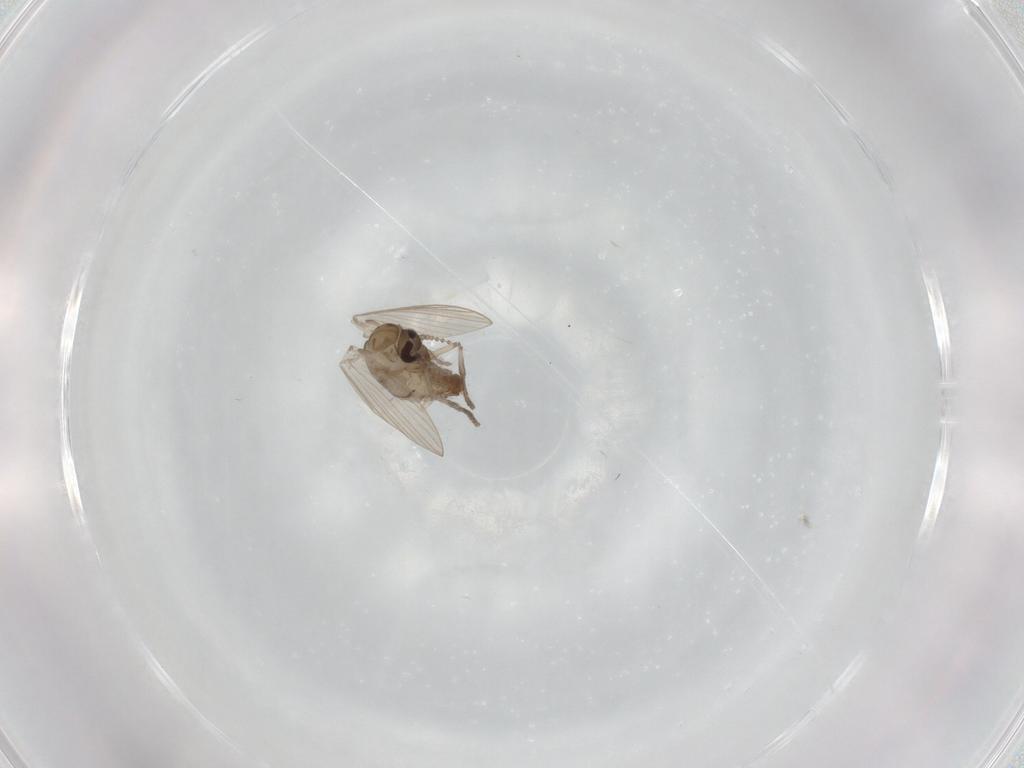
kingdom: Animalia
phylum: Arthropoda
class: Insecta
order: Diptera
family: Psychodidae
